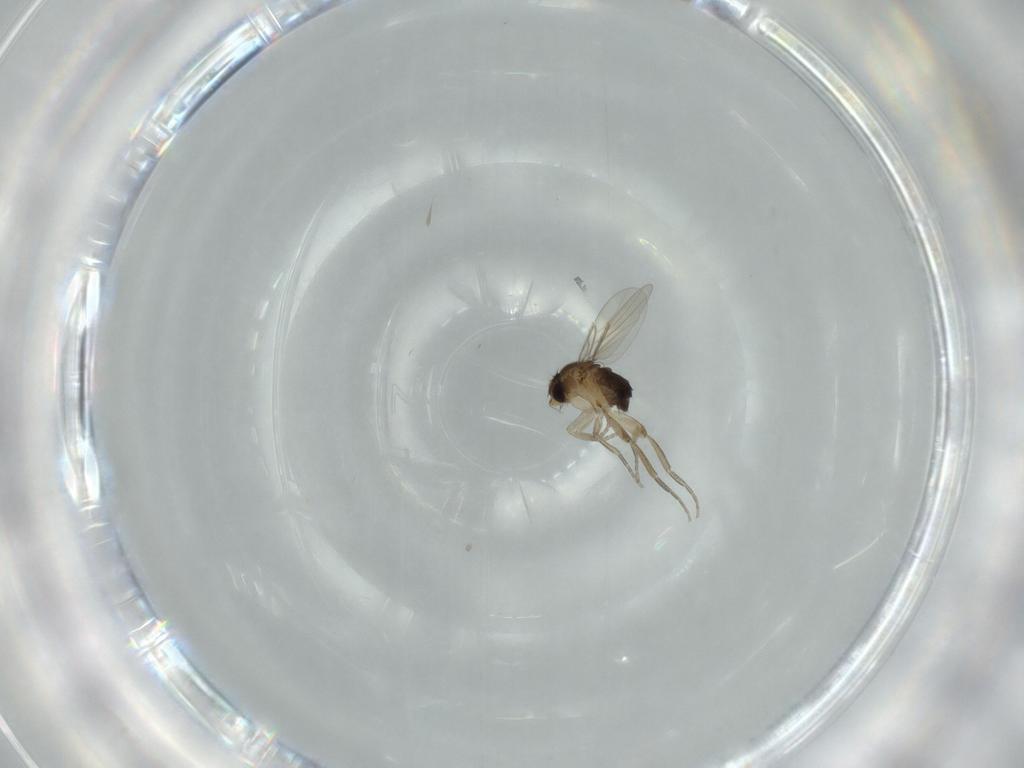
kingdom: Animalia
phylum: Arthropoda
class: Insecta
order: Diptera
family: Phoridae
